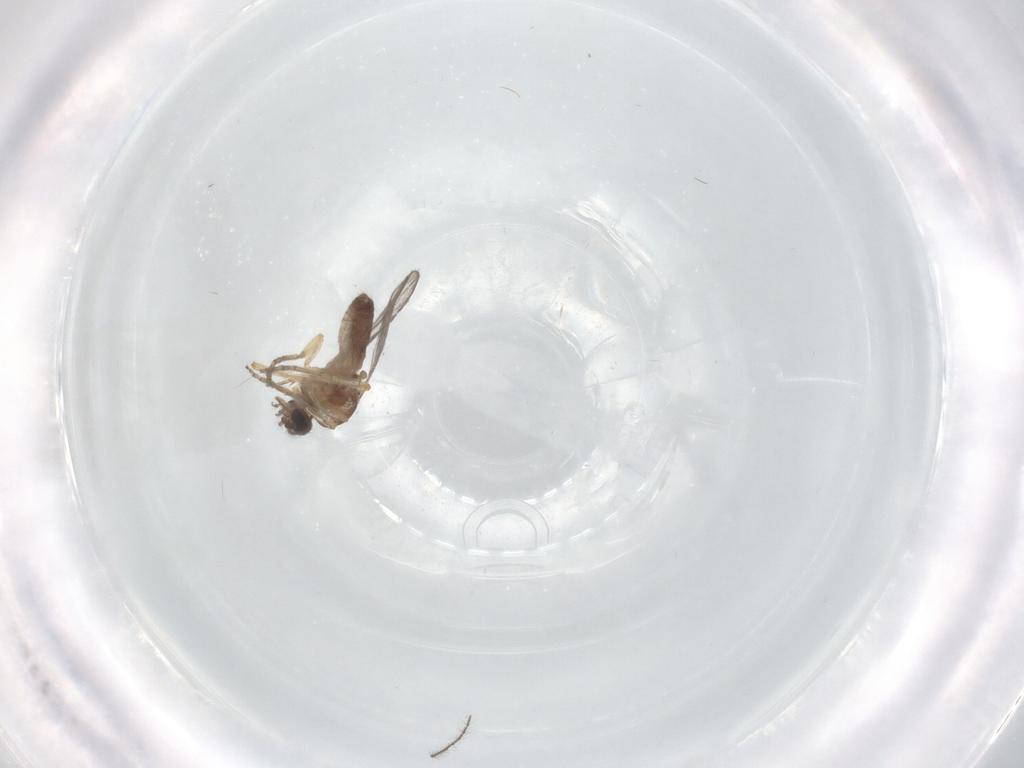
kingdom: Animalia
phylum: Arthropoda
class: Insecta
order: Diptera
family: Ceratopogonidae
